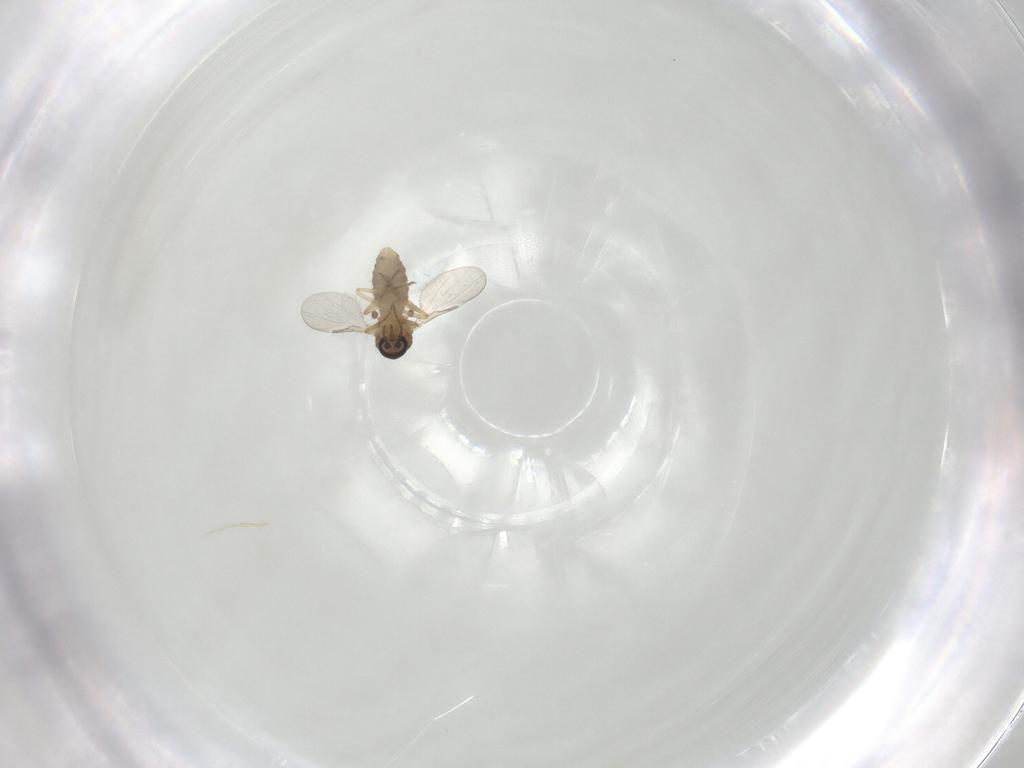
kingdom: Animalia
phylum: Arthropoda
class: Insecta
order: Diptera
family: Ceratopogonidae
